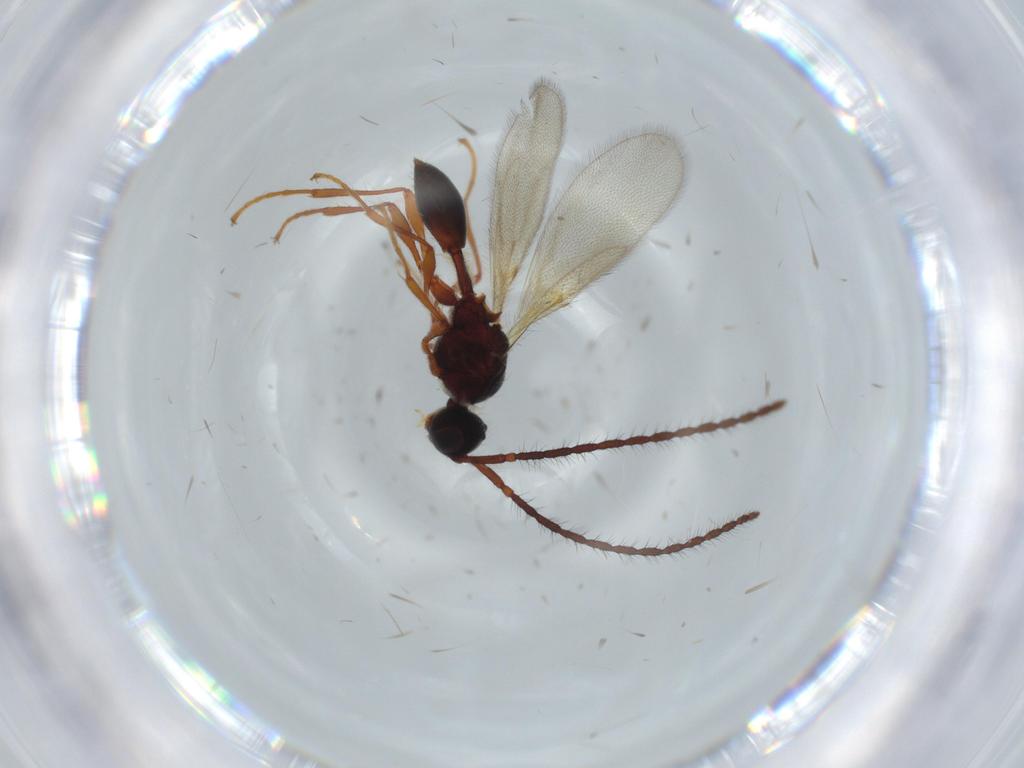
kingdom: Animalia
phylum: Arthropoda
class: Insecta
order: Hymenoptera
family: Diapriidae
